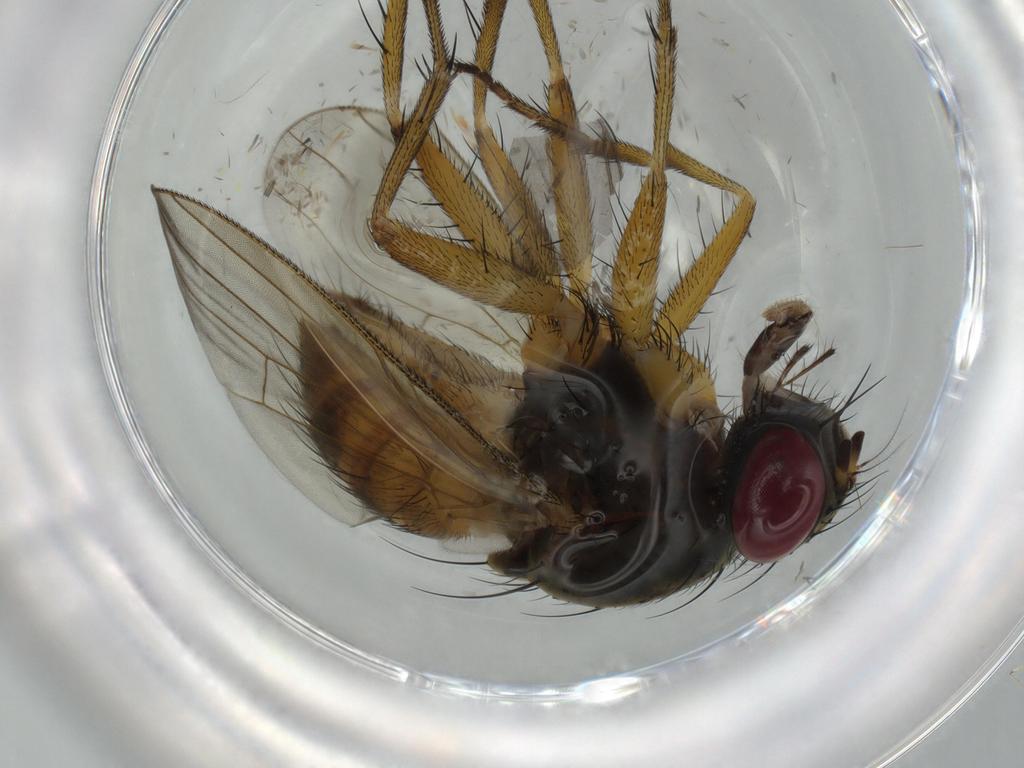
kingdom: Animalia
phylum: Arthropoda
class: Insecta
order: Diptera
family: Muscidae
